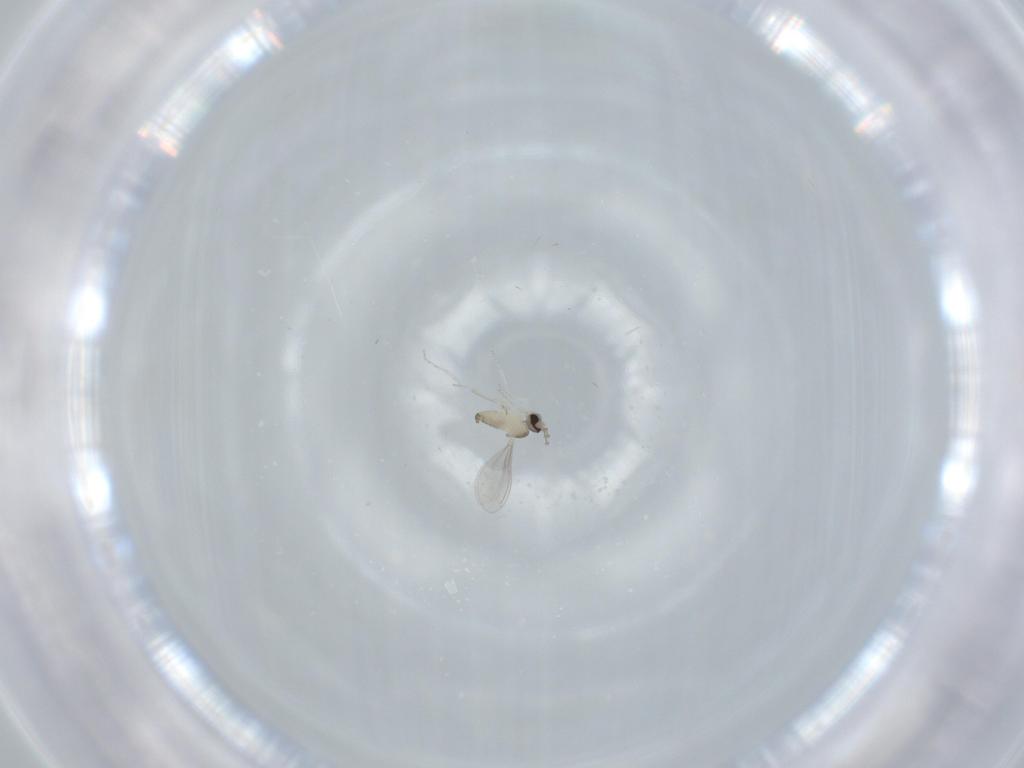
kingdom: Animalia
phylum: Arthropoda
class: Insecta
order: Diptera
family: Cecidomyiidae
